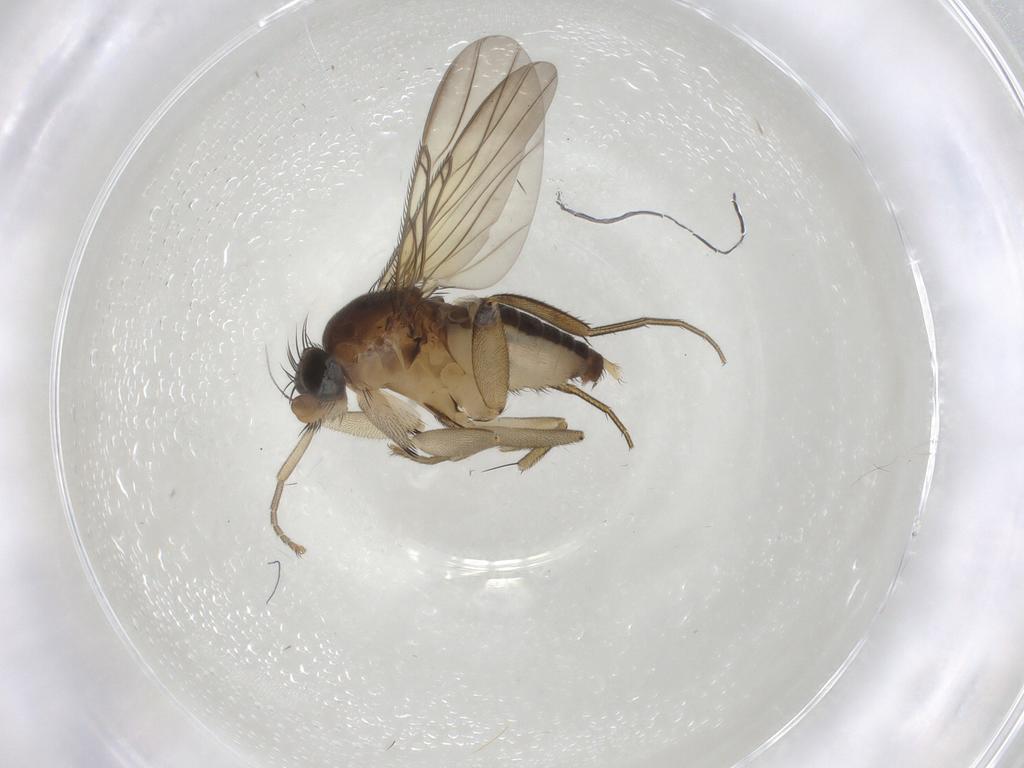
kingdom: Animalia
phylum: Arthropoda
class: Insecta
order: Diptera
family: Phoridae
